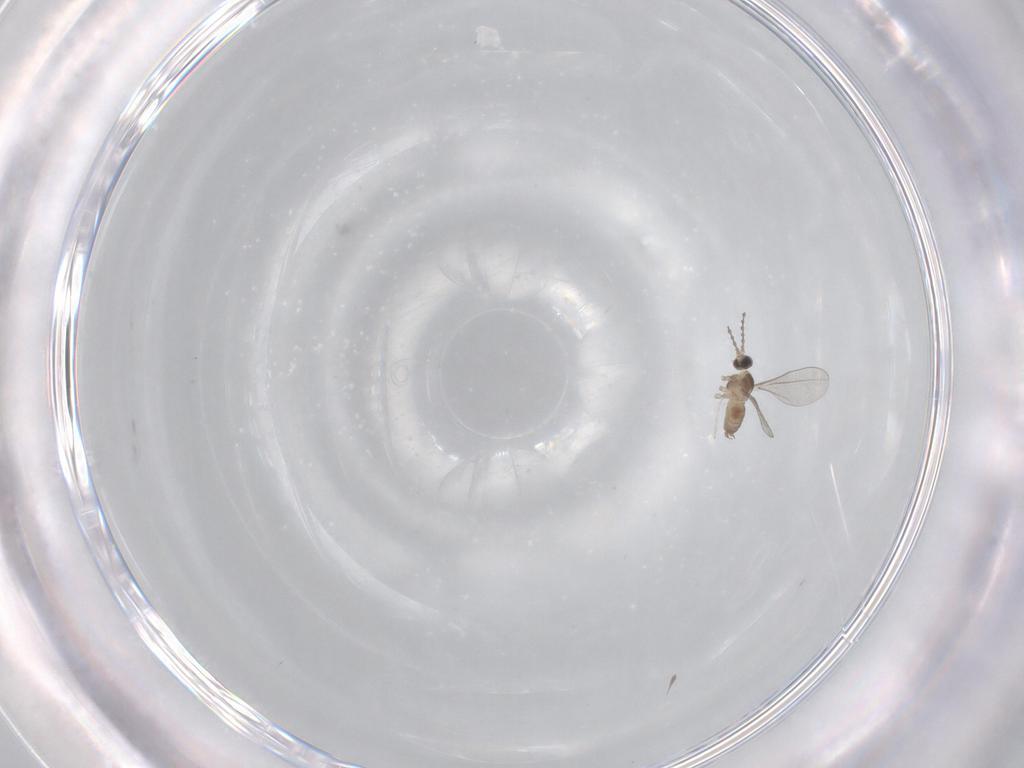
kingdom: Animalia
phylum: Arthropoda
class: Insecta
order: Diptera
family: Cecidomyiidae
